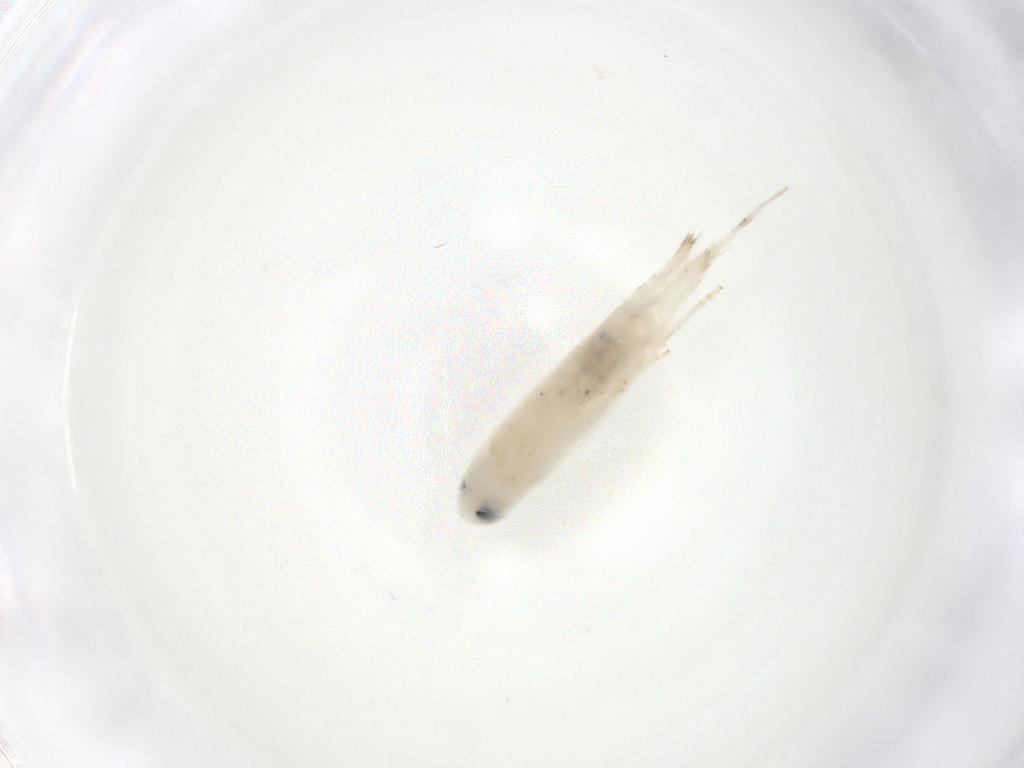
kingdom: Animalia
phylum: Arthropoda
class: Insecta
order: Lepidoptera
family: Geometridae
